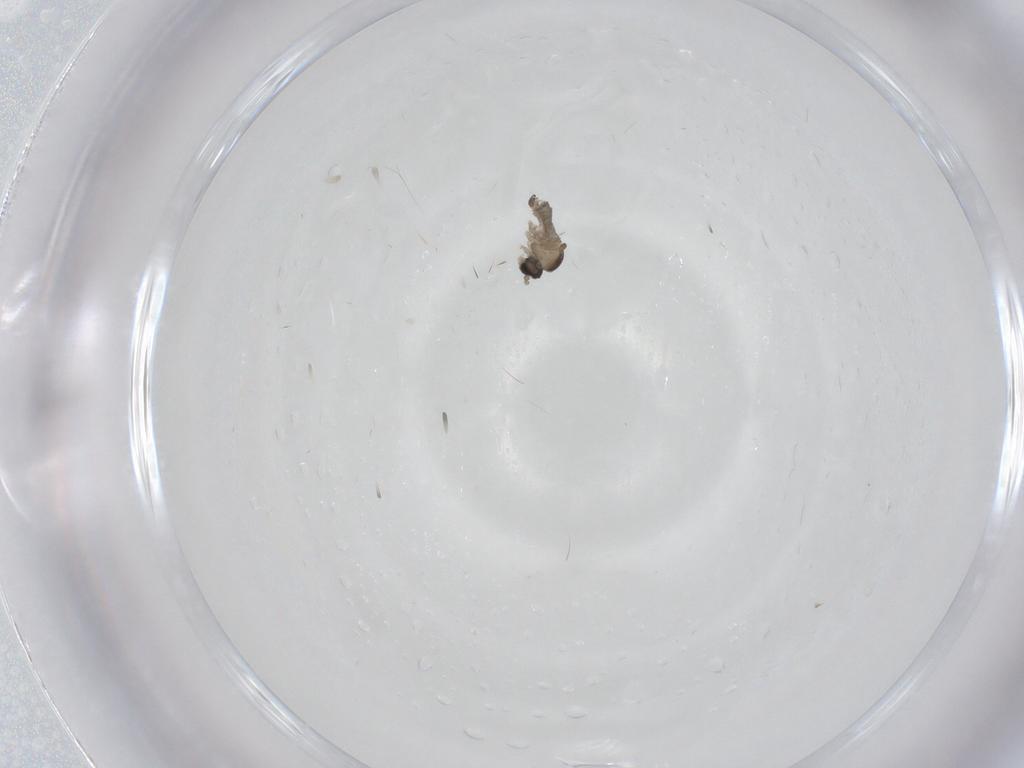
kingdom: Animalia
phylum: Arthropoda
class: Insecta
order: Diptera
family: Cecidomyiidae
